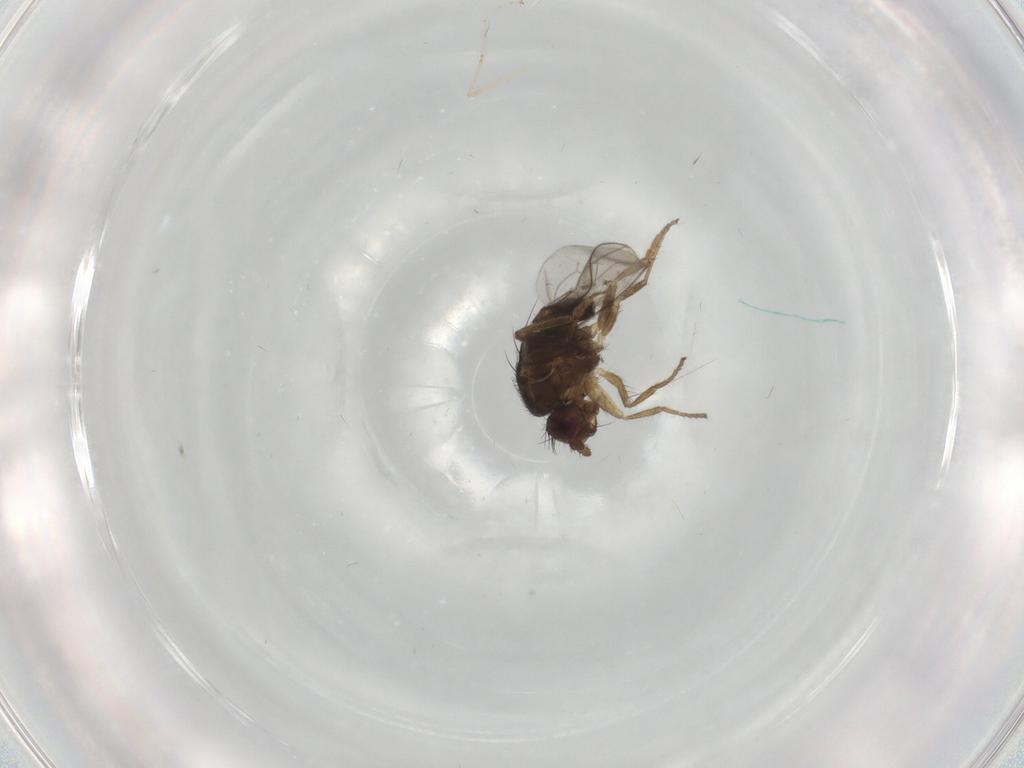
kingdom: Animalia
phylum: Arthropoda
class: Insecta
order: Diptera
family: Sphaeroceridae
